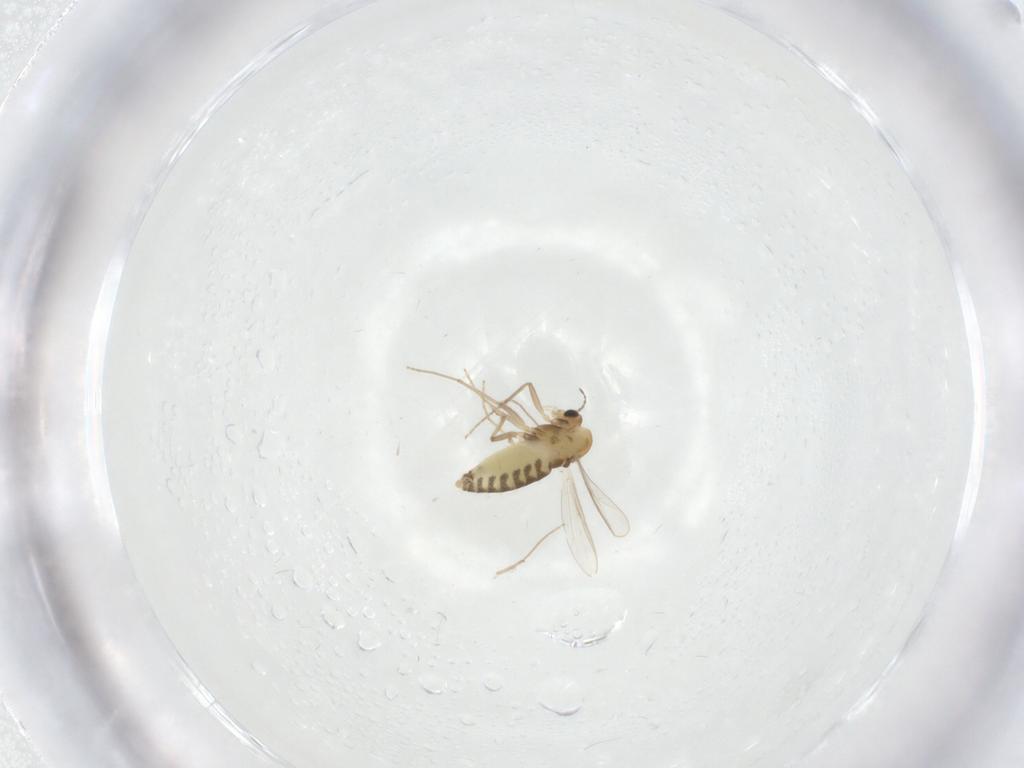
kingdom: Animalia
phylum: Arthropoda
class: Insecta
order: Diptera
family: Chironomidae
